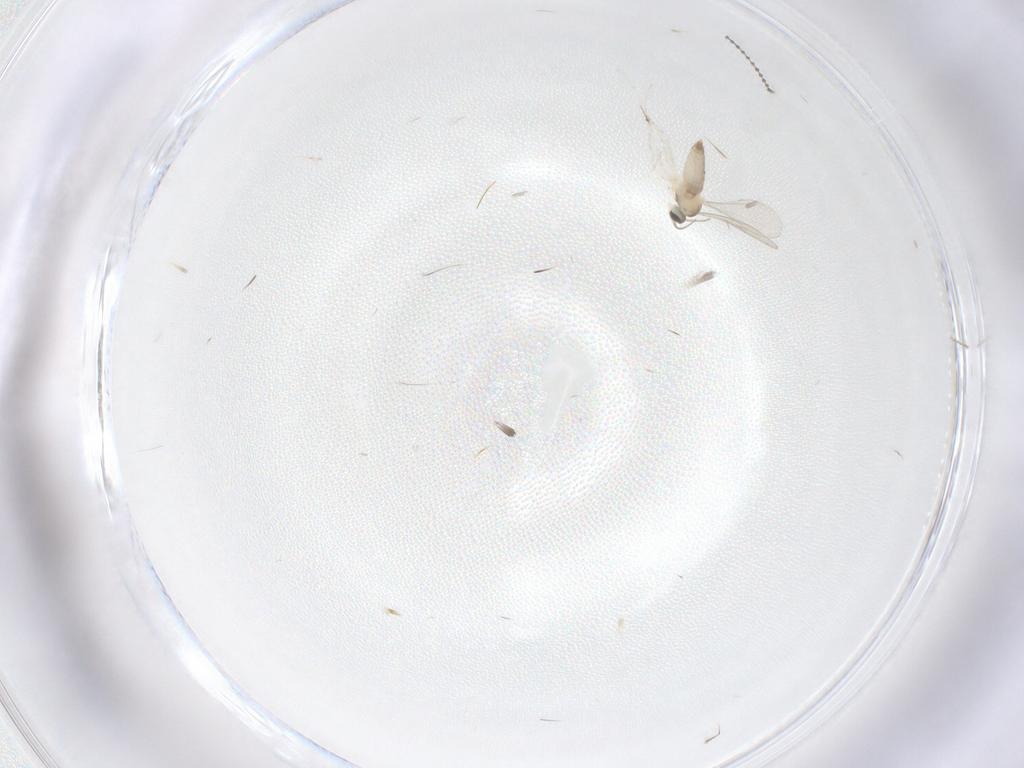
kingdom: Animalia
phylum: Arthropoda
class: Insecta
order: Diptera
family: Cecidomyiidae
